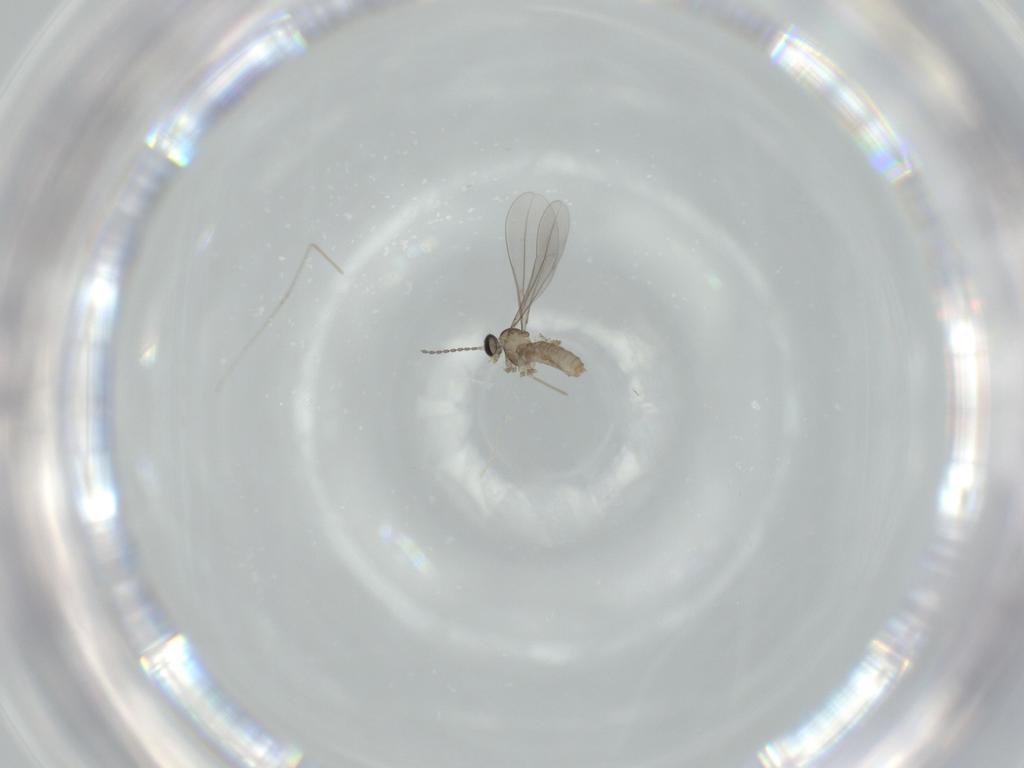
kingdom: Animalia
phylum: Arthropoda
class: Insecta
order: Diptera
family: Cecidomyiidae
